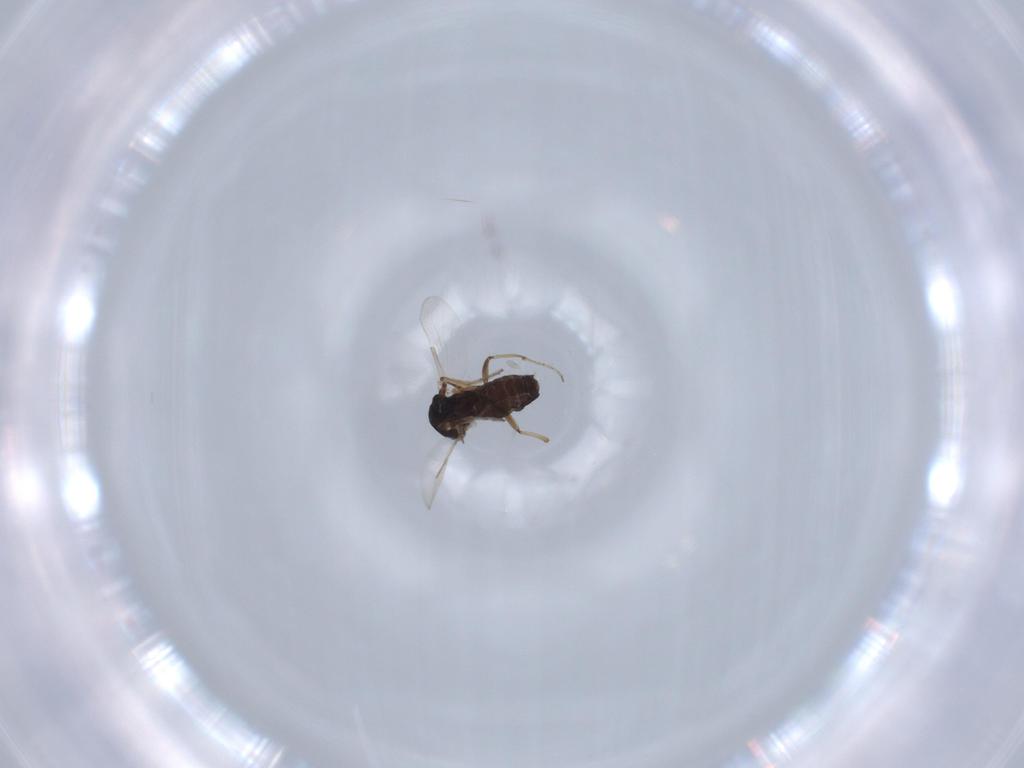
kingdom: Animalia
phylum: Arthropoda
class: Insecta
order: Diptera
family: Ceratopogonidae
